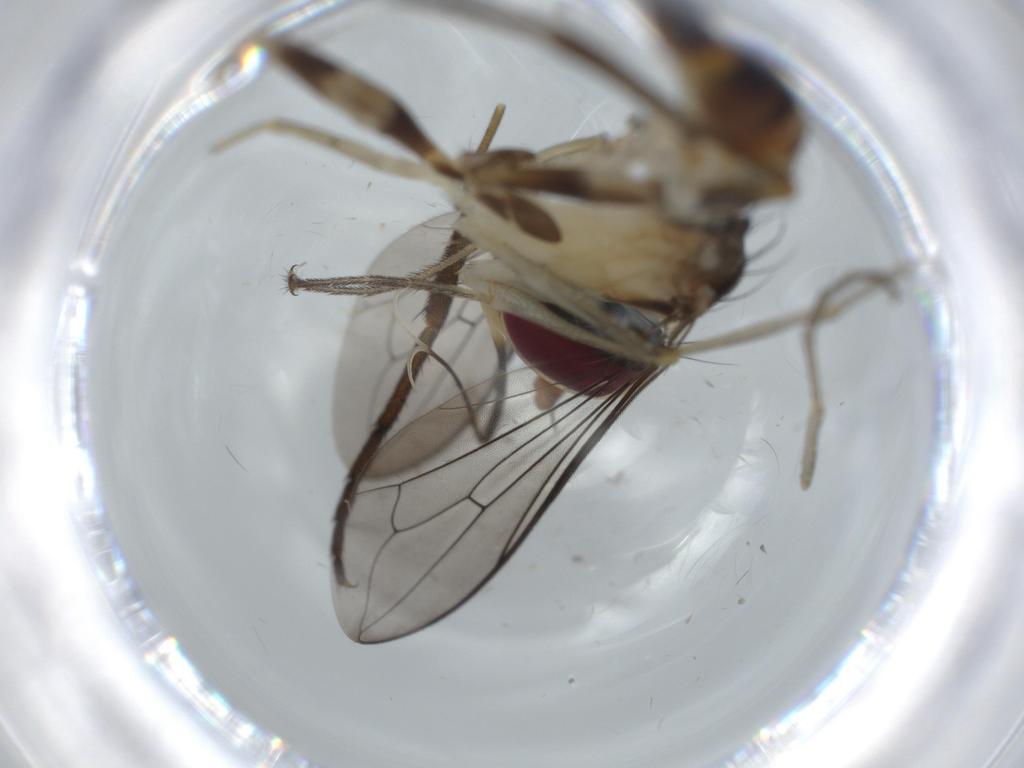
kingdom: Animalia
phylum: Arthropoda
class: Insecta
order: Diptera
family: Conopidae
